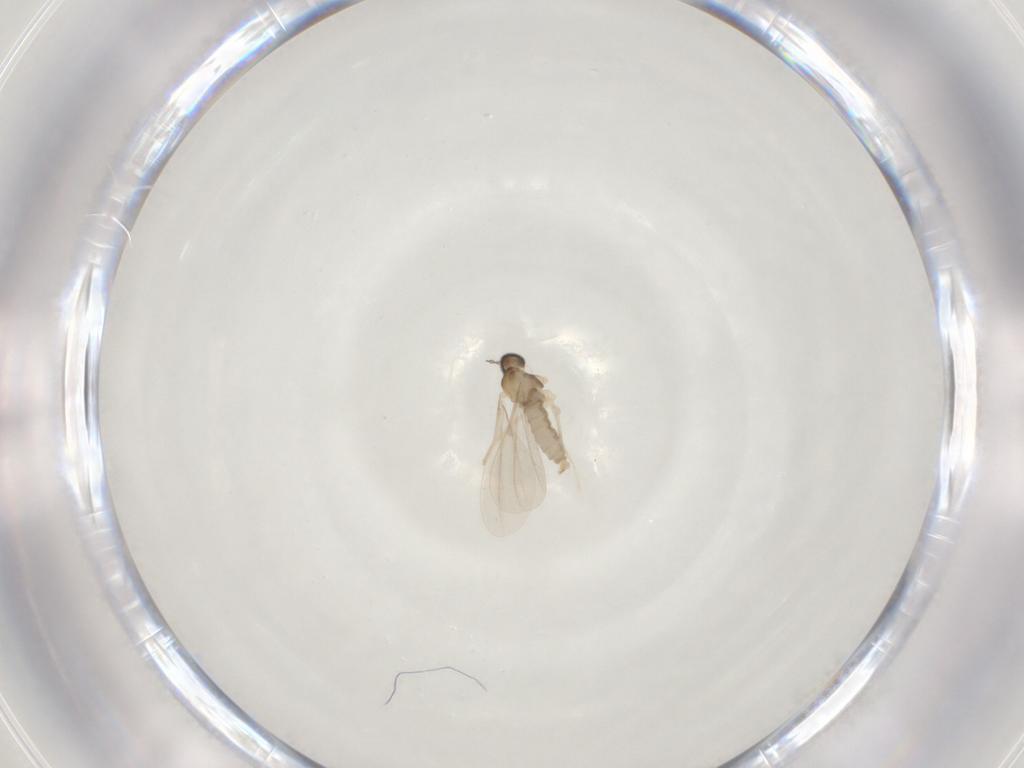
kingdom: Animalia
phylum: Arthropoda
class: Insecta
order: Diptera
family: Cecidomyiidae
